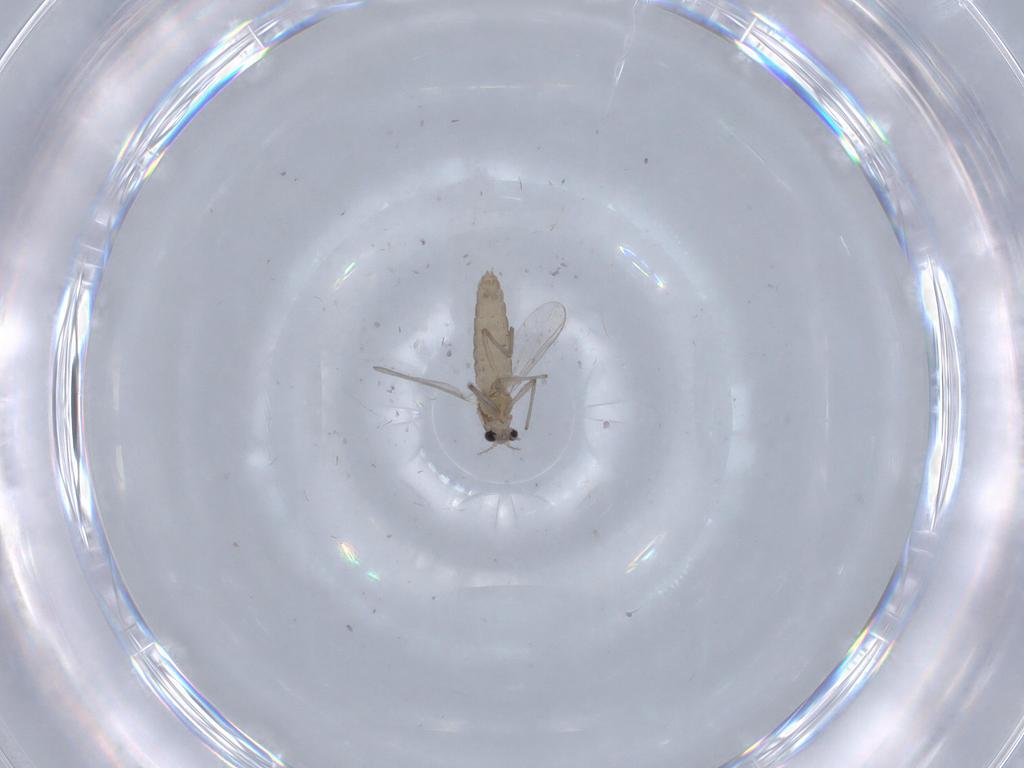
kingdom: Animalia
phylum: Arthropoda
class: Insecta
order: Diptera
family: Chironomidae
